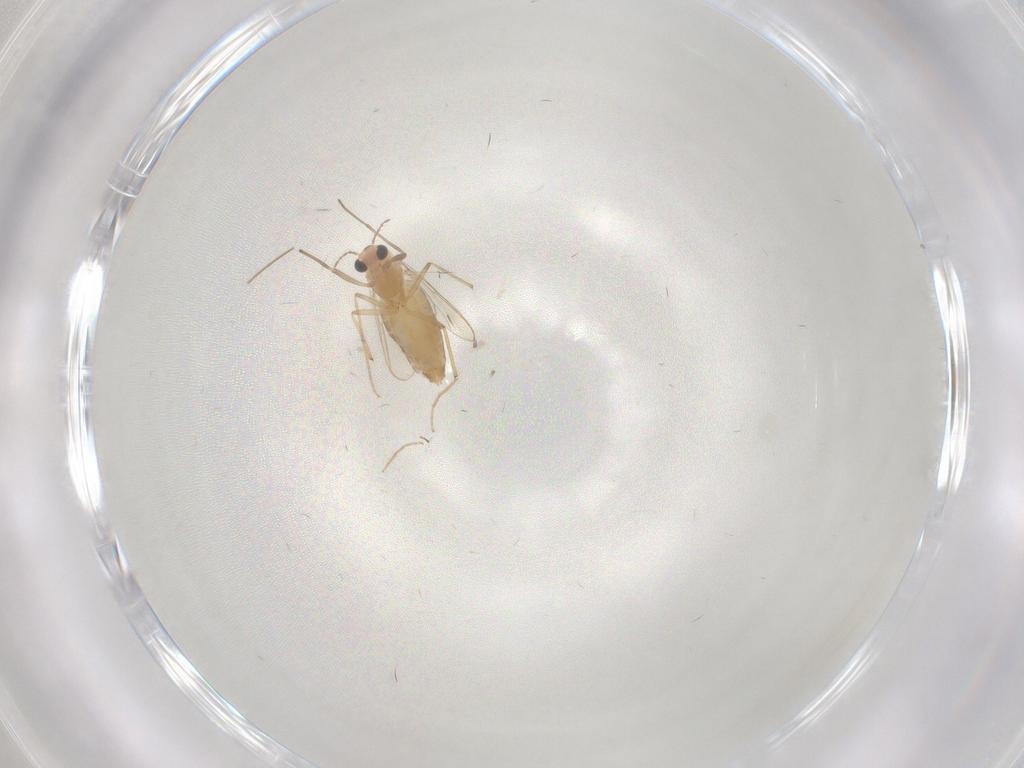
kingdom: Animalia
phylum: Arthropoda
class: Insecta
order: Diptera
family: Chironomidae
